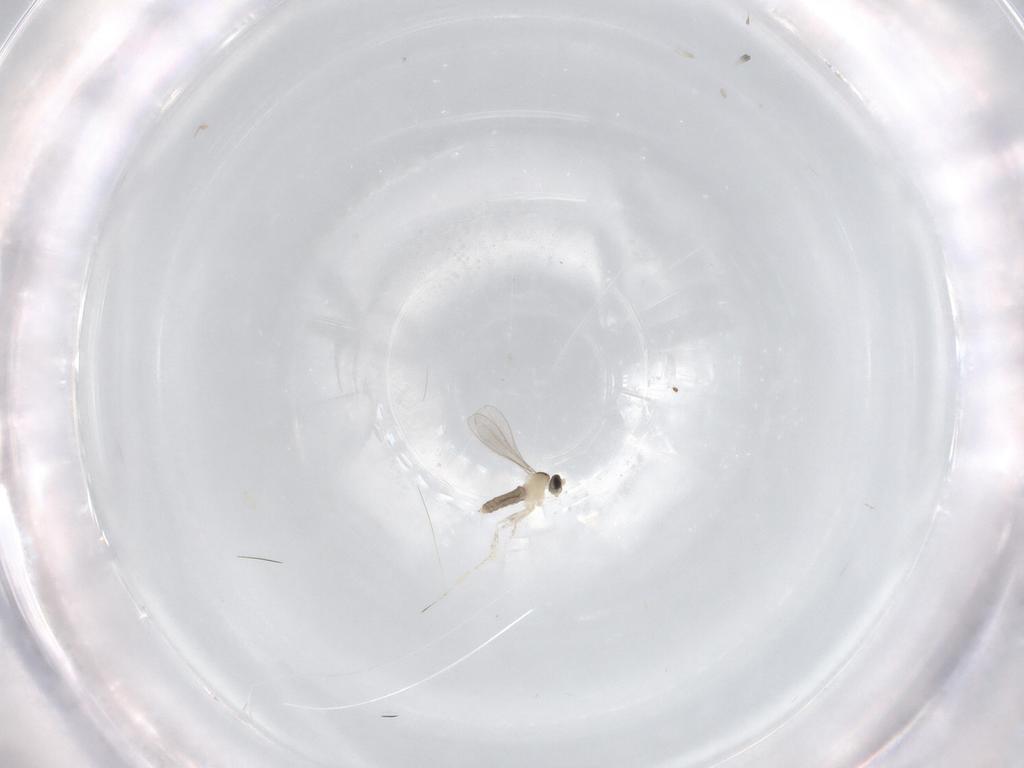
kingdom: Animalia
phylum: Arthropoda
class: Insecta
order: Diptera
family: Cecidomyiidae
